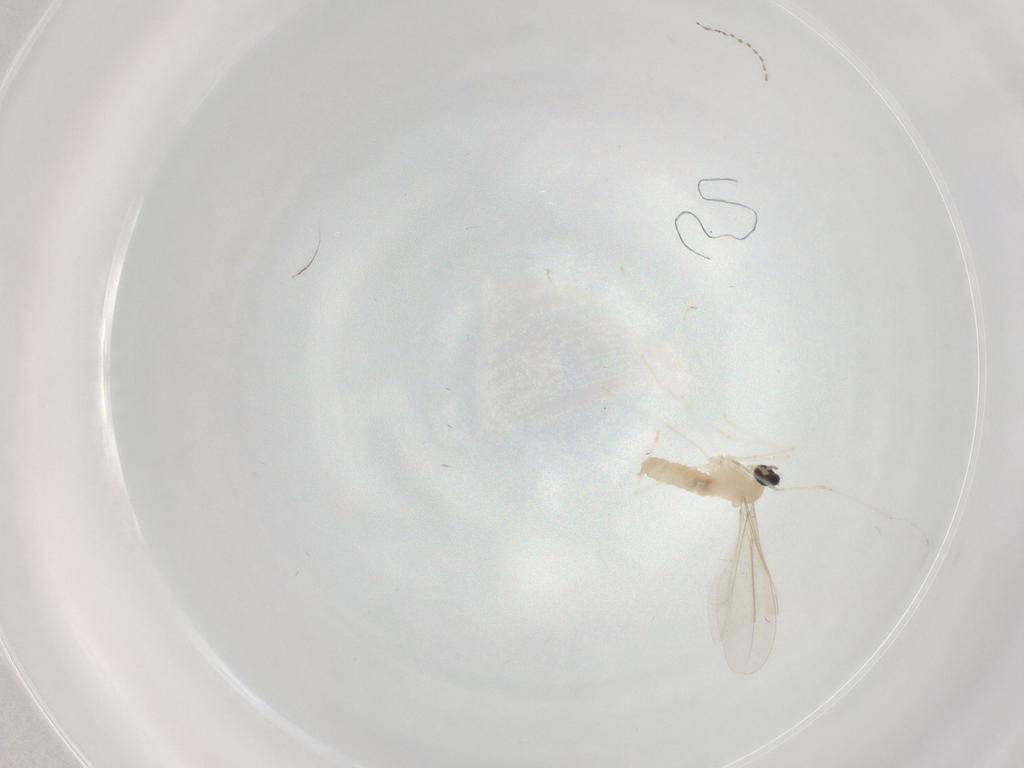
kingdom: Animalia
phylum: Arthropoda
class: Insecta
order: Diptera
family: Cecidomyiidae
